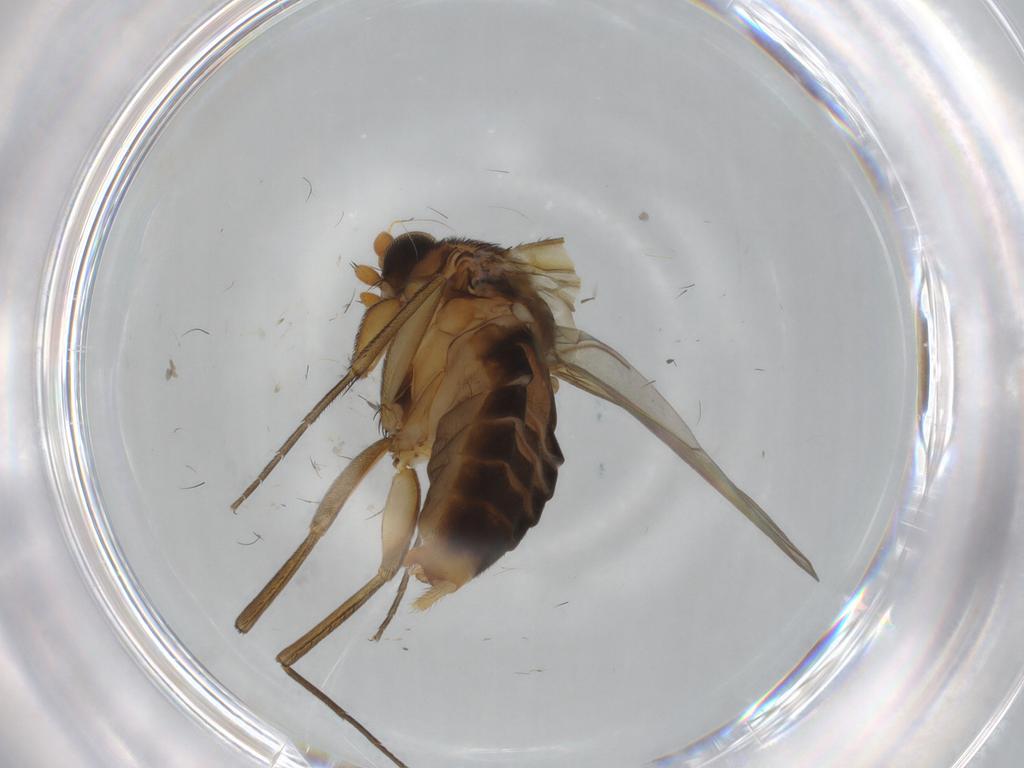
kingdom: Animalia
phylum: Arthropoda
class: Insecta
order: Diptera
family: Phoridae
